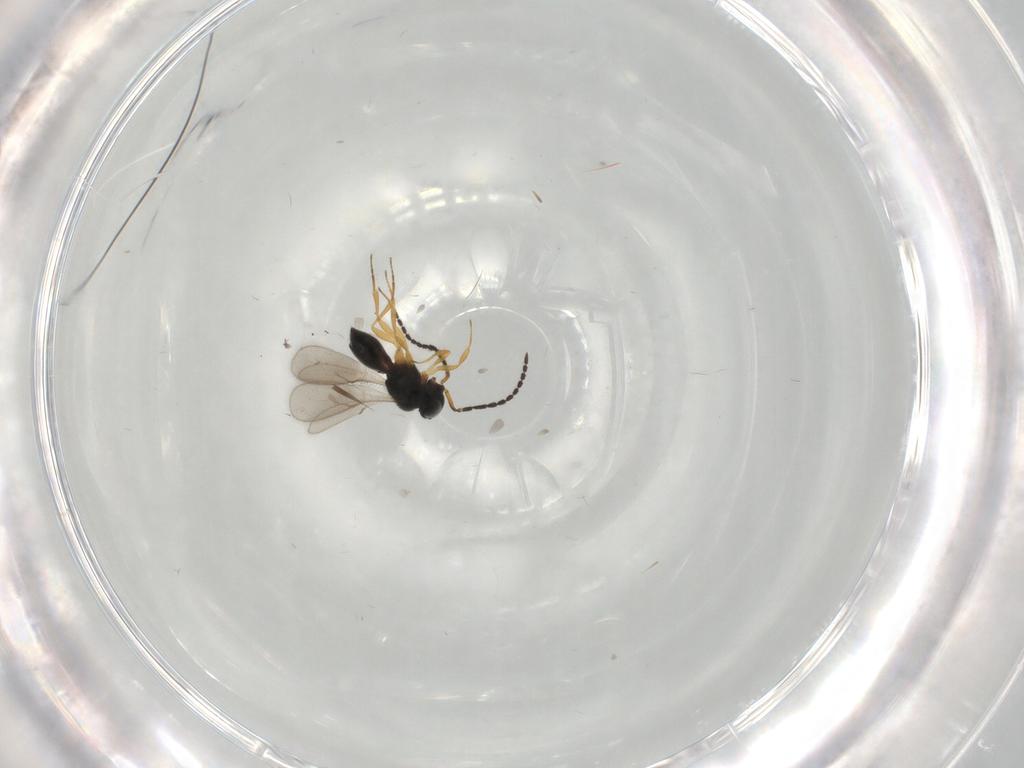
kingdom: Animalia
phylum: Arthropoda
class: Insecta
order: Hymenoptera
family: Scelionidae
